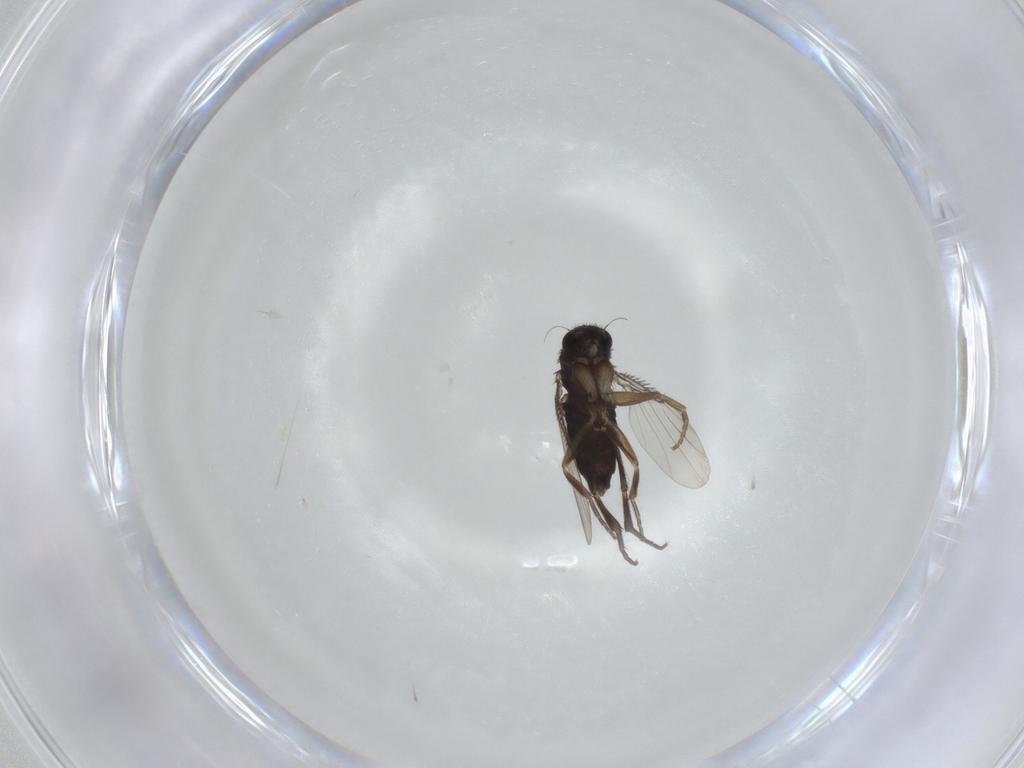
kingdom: Animalia
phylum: Arthropoda
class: Insecta
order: Diptera
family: Phoridae
